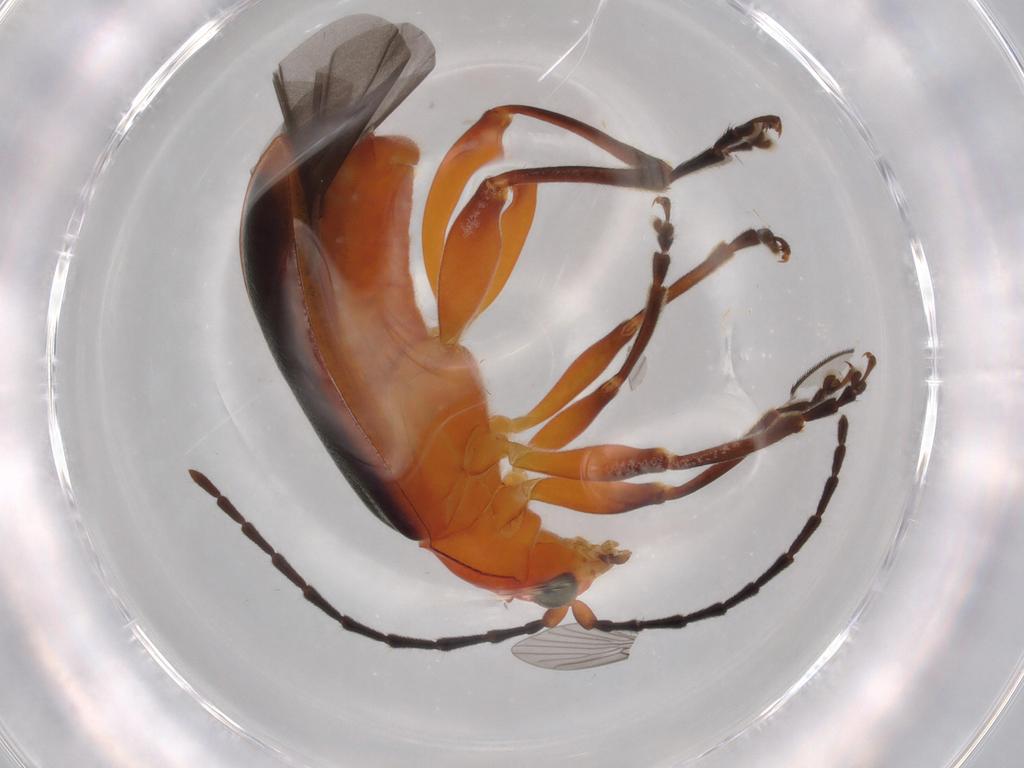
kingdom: Animalia
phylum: Arthropoda
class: Insecta
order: Coleoptera
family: Chrysomelidae
